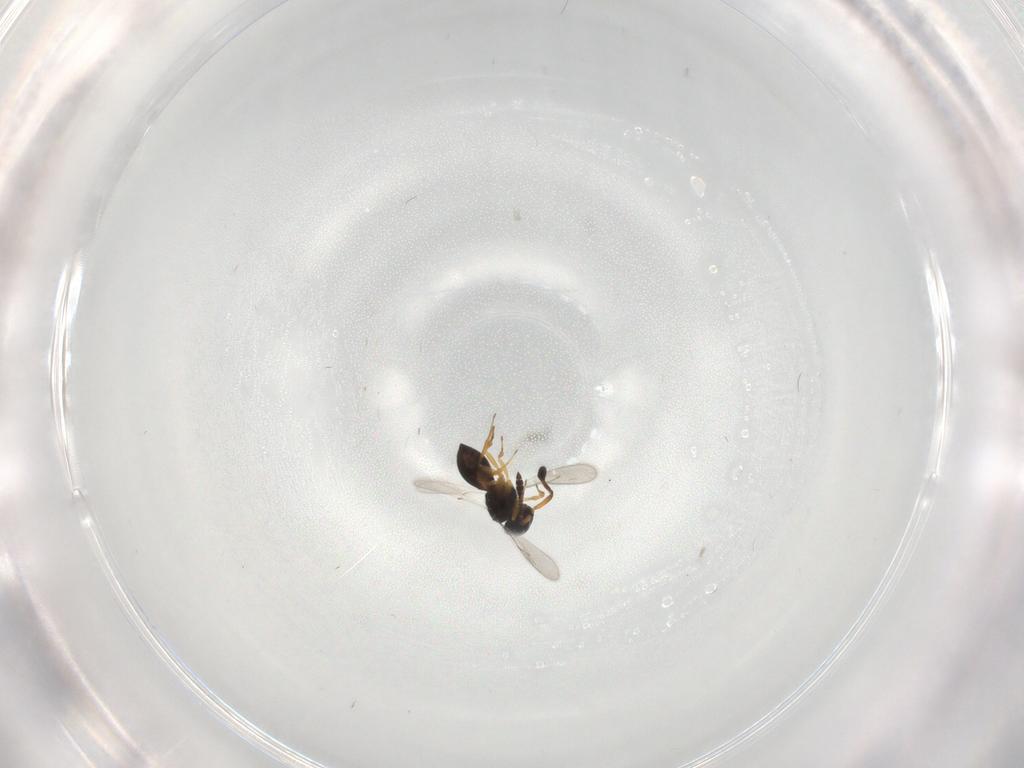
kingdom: Animalia
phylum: Arthropoda
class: Insecta
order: Hymenoptera
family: Scelionidae
